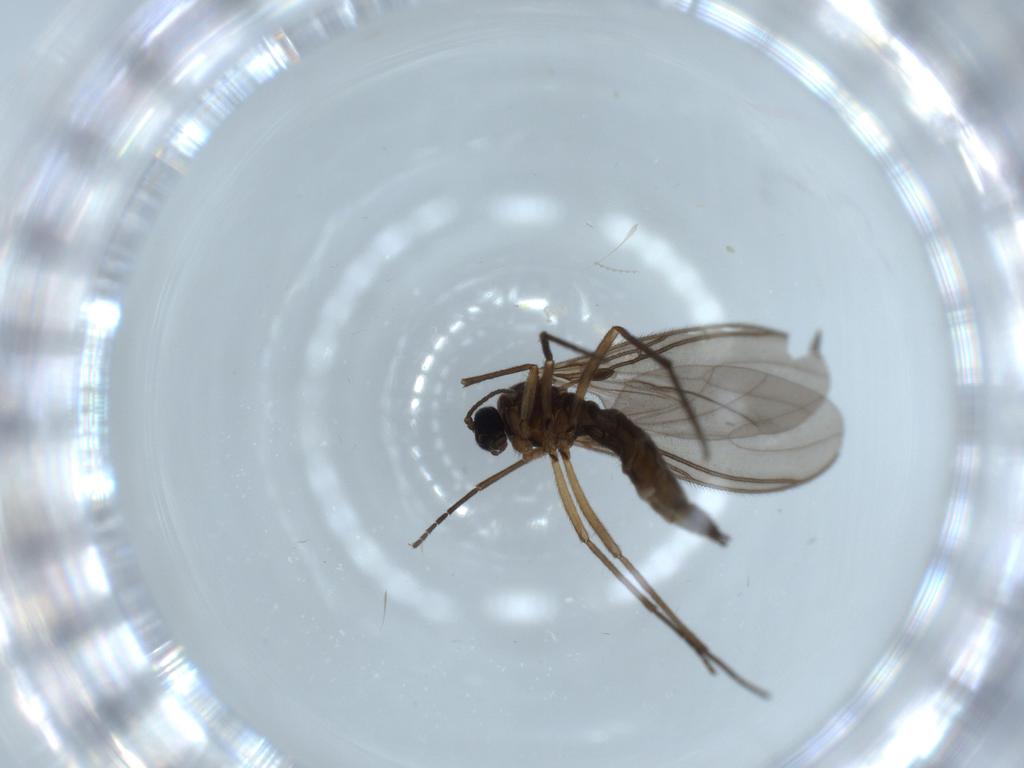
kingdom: Animalia
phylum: Arthropoda
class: Insecta
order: Diptera
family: Sciaridae
